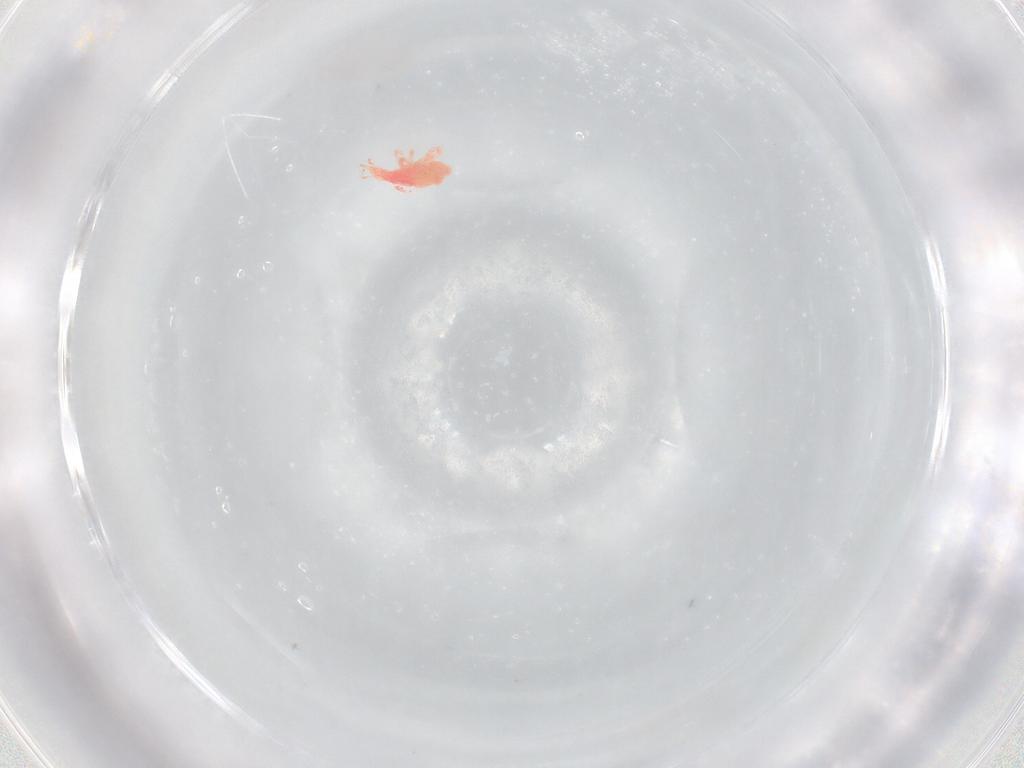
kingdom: Animalia
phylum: Arthropoda
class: Arachnida
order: Trombidiformes
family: Bdellidae
